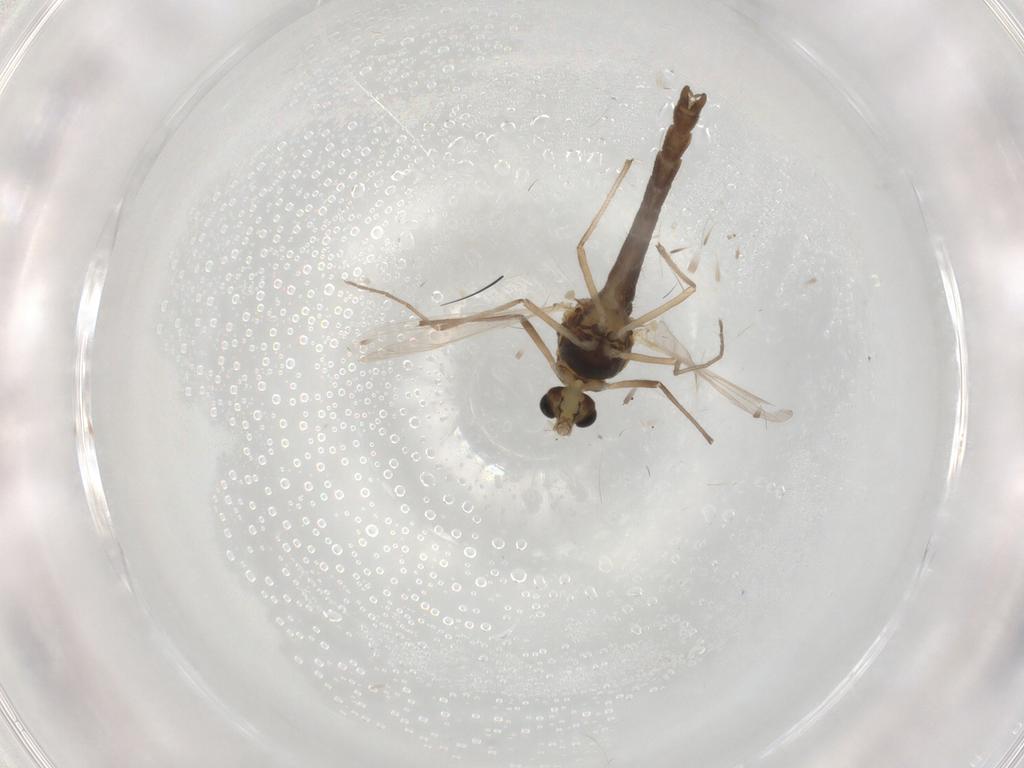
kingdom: Animalia
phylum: Arthropoda
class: Insecta
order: Diptera
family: Chironomidae
